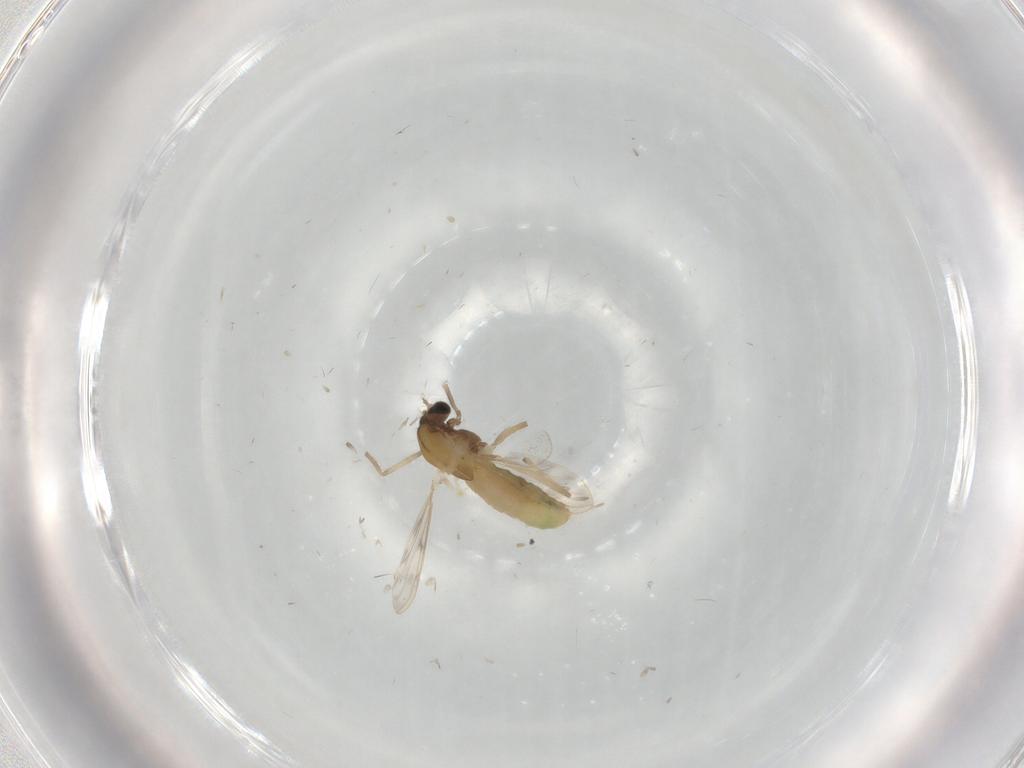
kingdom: Animalia
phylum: Arthropoda
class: Insecta
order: Diptera
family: Chironomidae
